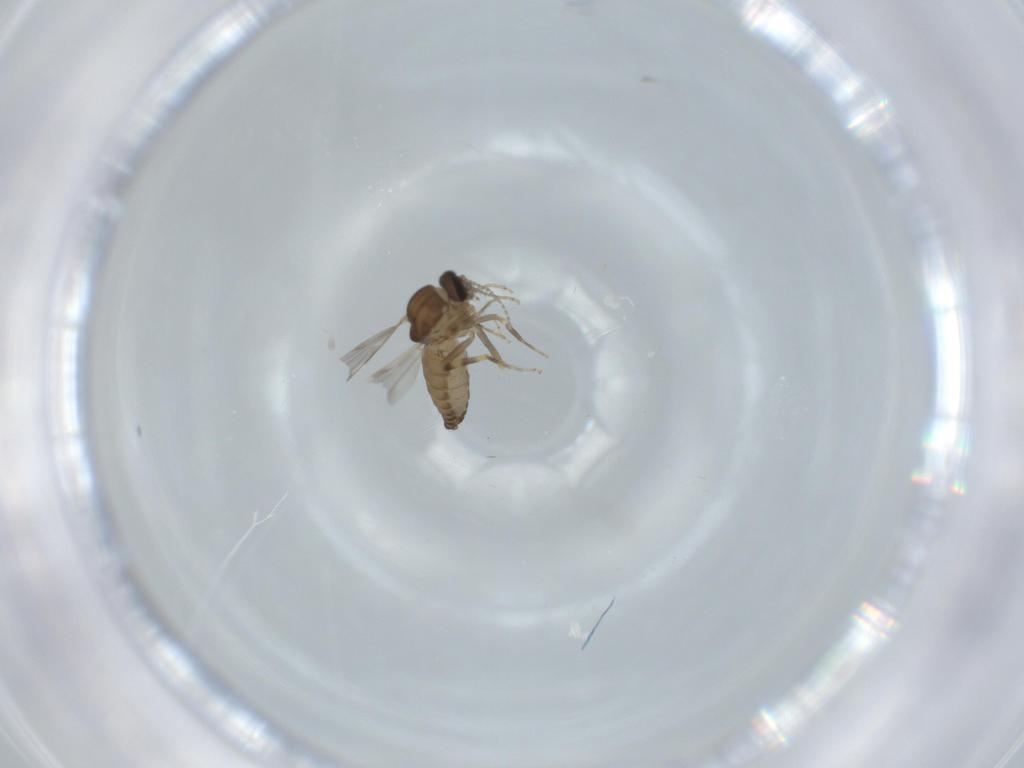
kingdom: Animalia
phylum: Arthropoda
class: Insecta
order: Diptera
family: Ceratopogonidae
